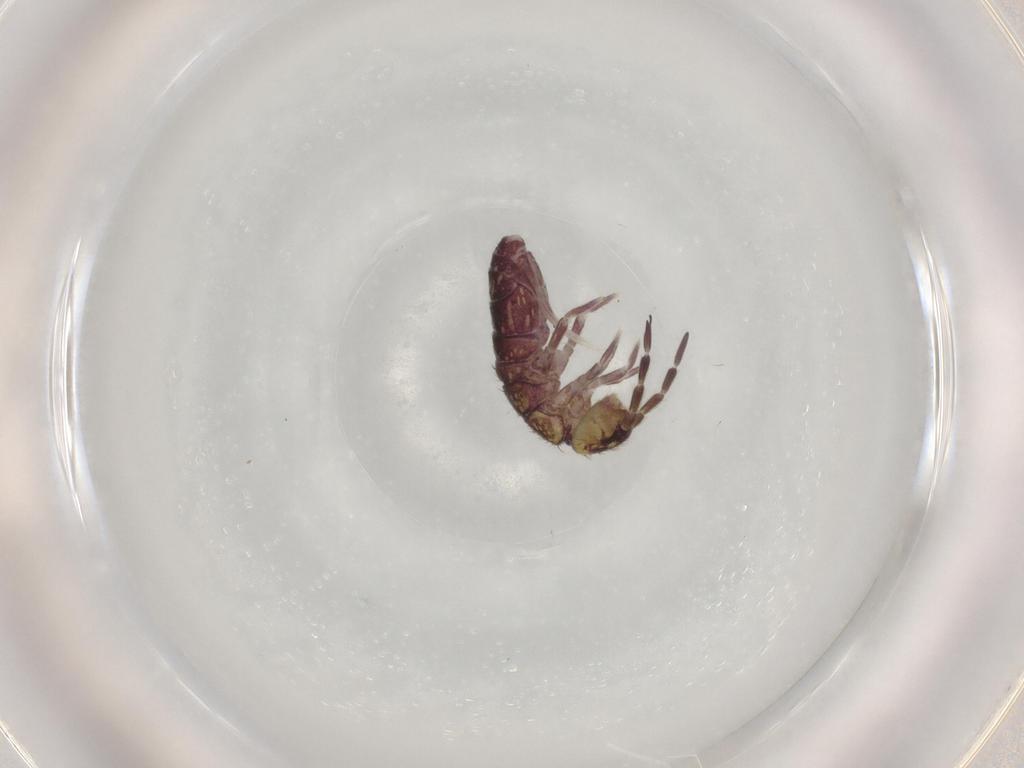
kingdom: Animalia
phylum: Arthropoda
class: Collembola
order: Entomobryomorpha
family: Isotomidae
